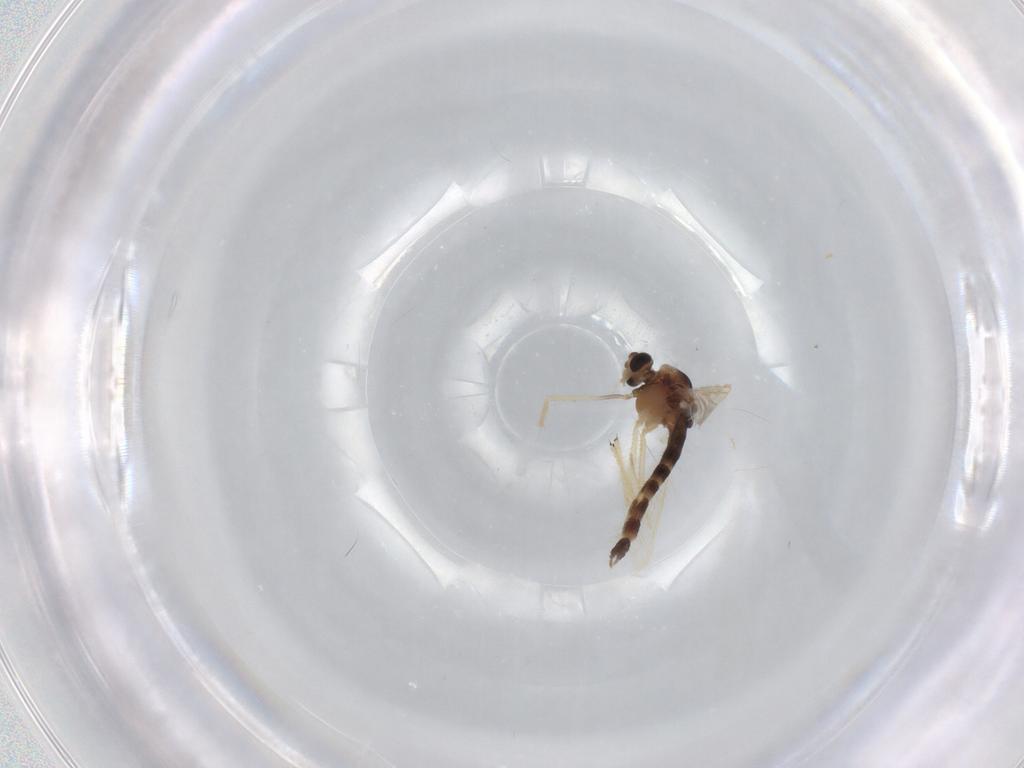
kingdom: Animalia
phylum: Arthropoda
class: Insecta
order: Diptera
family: Chironomidae
